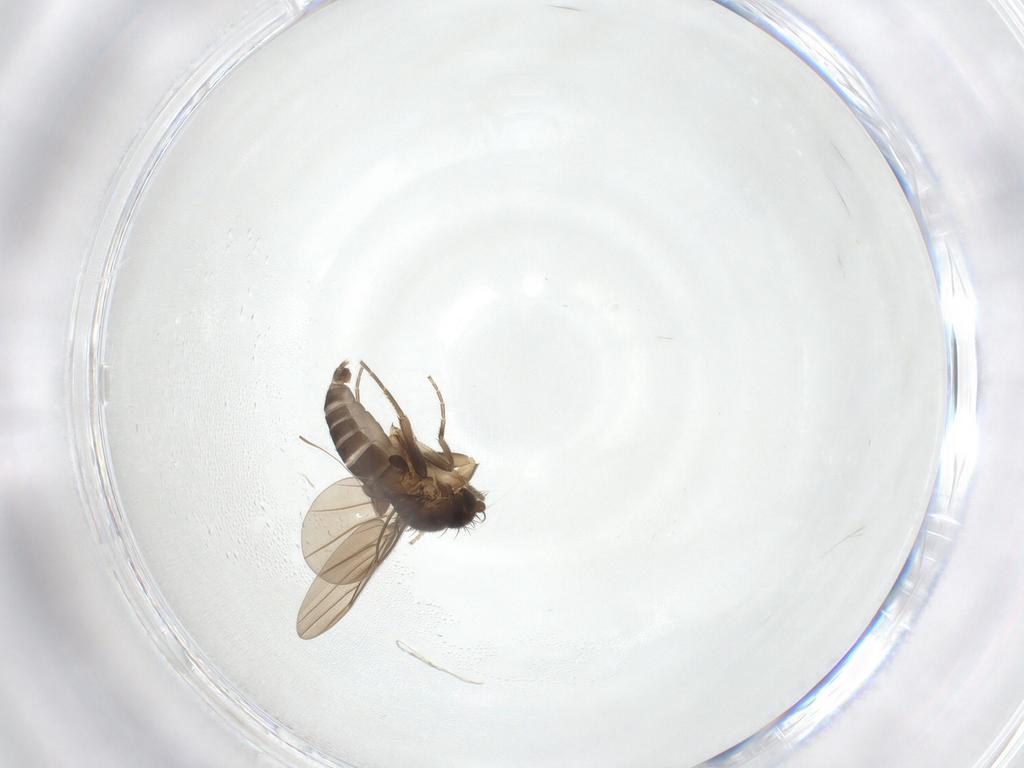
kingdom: Animalia
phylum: Arthropoda
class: Insecta
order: Diptera
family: Phoridae
